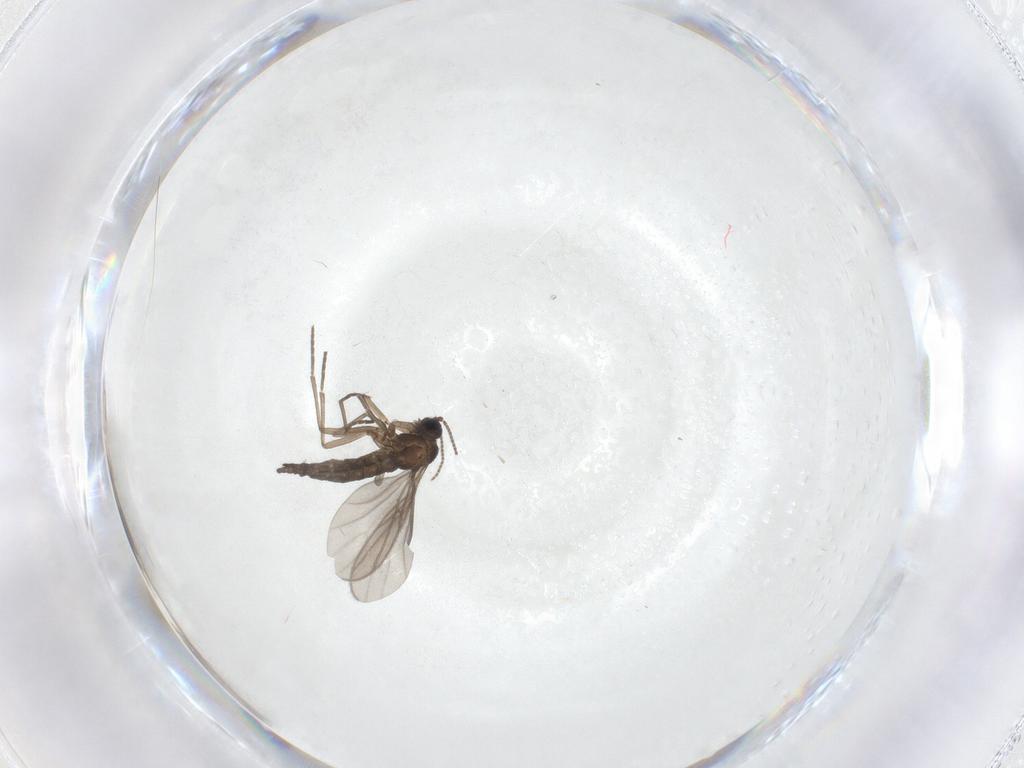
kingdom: Animalia
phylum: Arthropoda
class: Insecta
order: Diptera
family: Sciaridae
